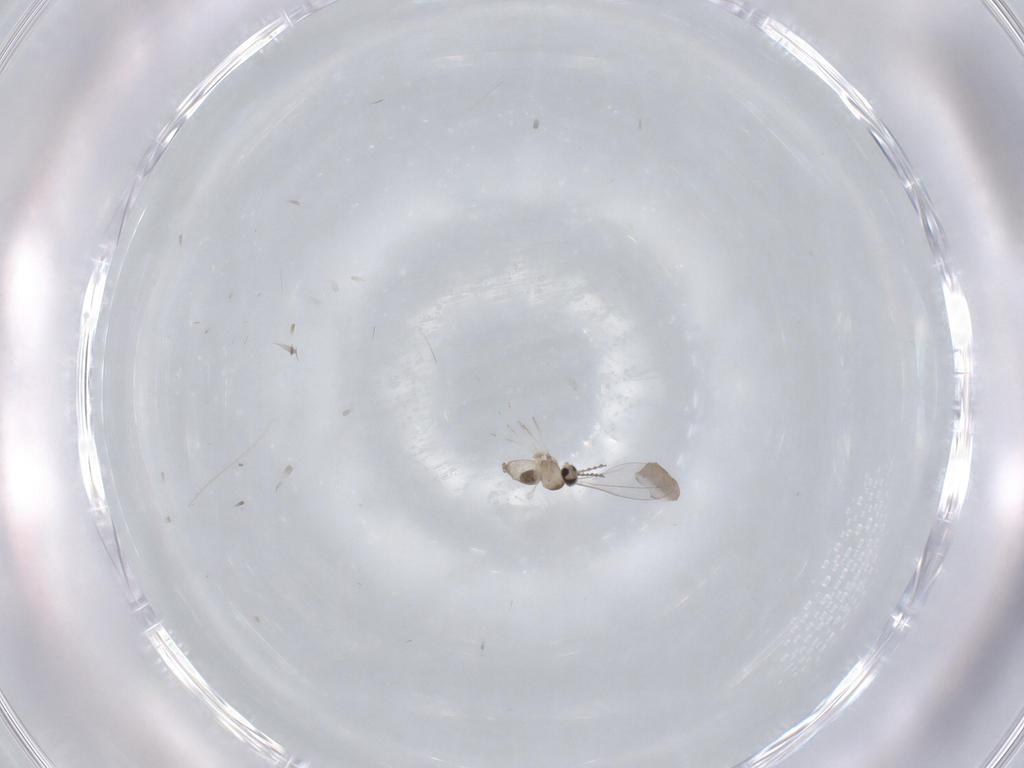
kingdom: Animalia
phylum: Arthropoda
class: Insecta
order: Diptera
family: Cecidomyiidae
